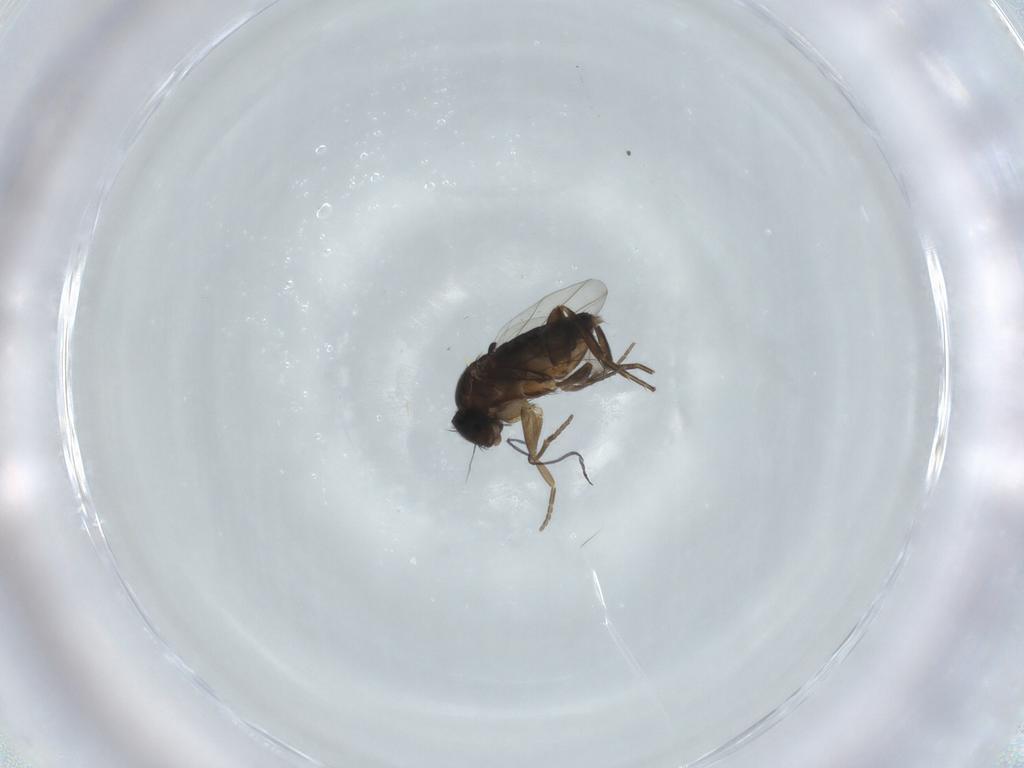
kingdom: Animalia
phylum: Arthropoda
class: Insecta
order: Diptera
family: Phoridae
